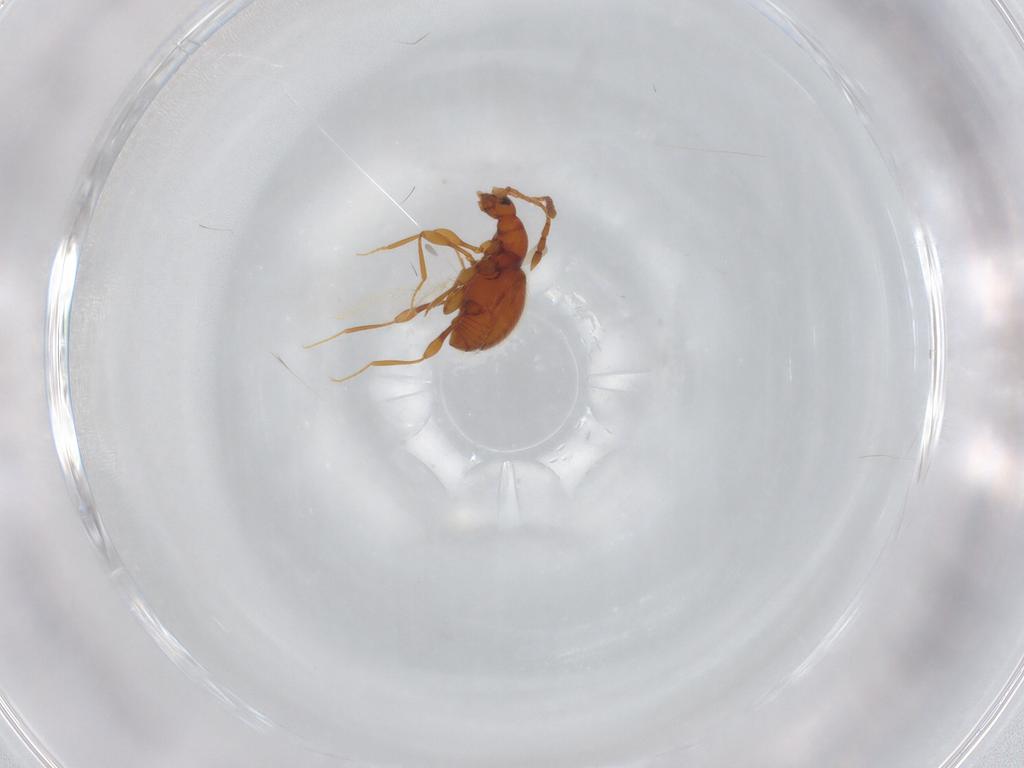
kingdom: Animalia
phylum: Arthropoda
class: Insecta
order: Coleoptera
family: Staphylinidae
